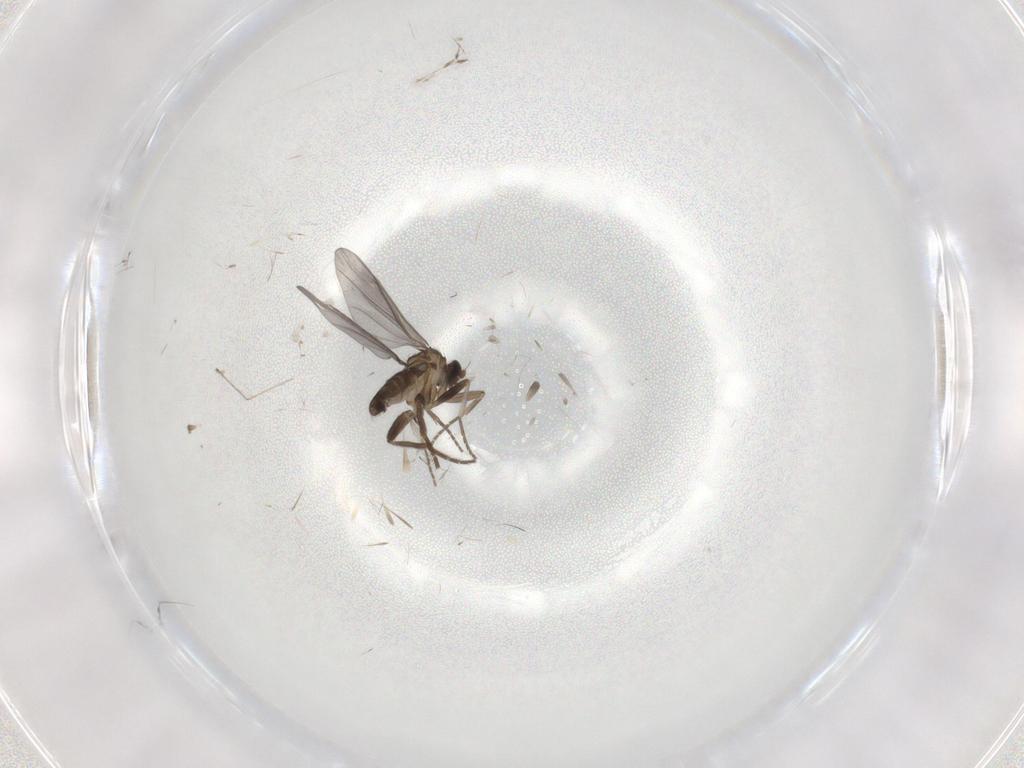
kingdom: Animalia
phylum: Arthropoda
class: Insecta
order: Diptera
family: Phoridae
